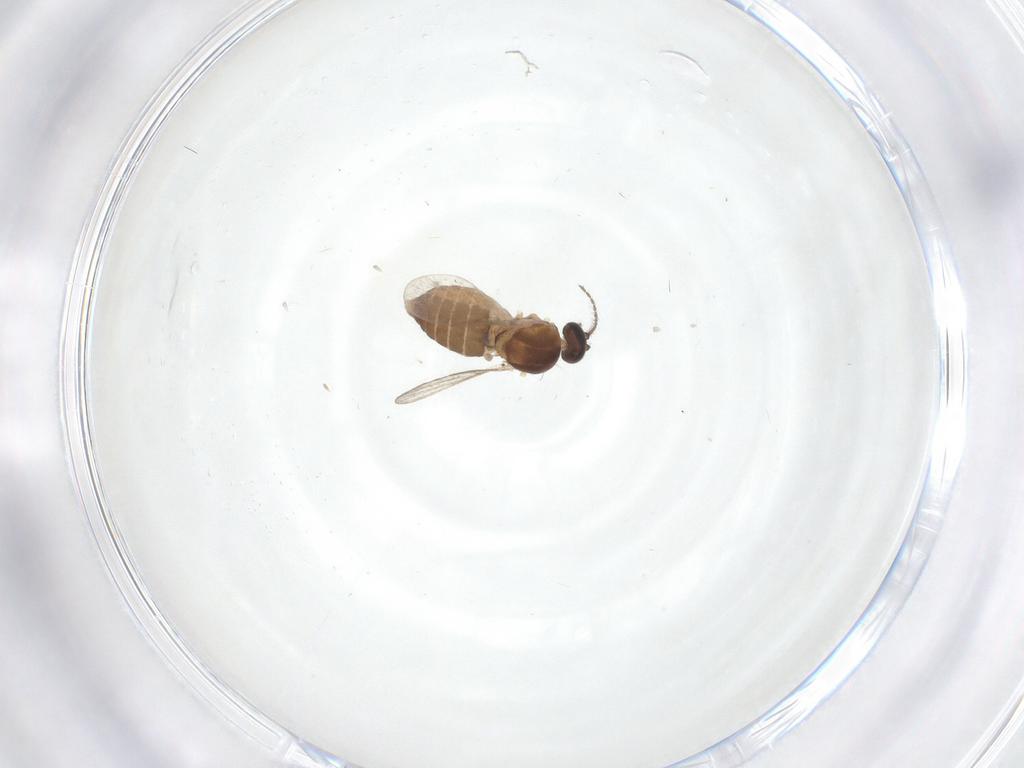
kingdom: Animalia
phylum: Arthropoda
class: Insecta
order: Diptera
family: Ceratopogonidae
